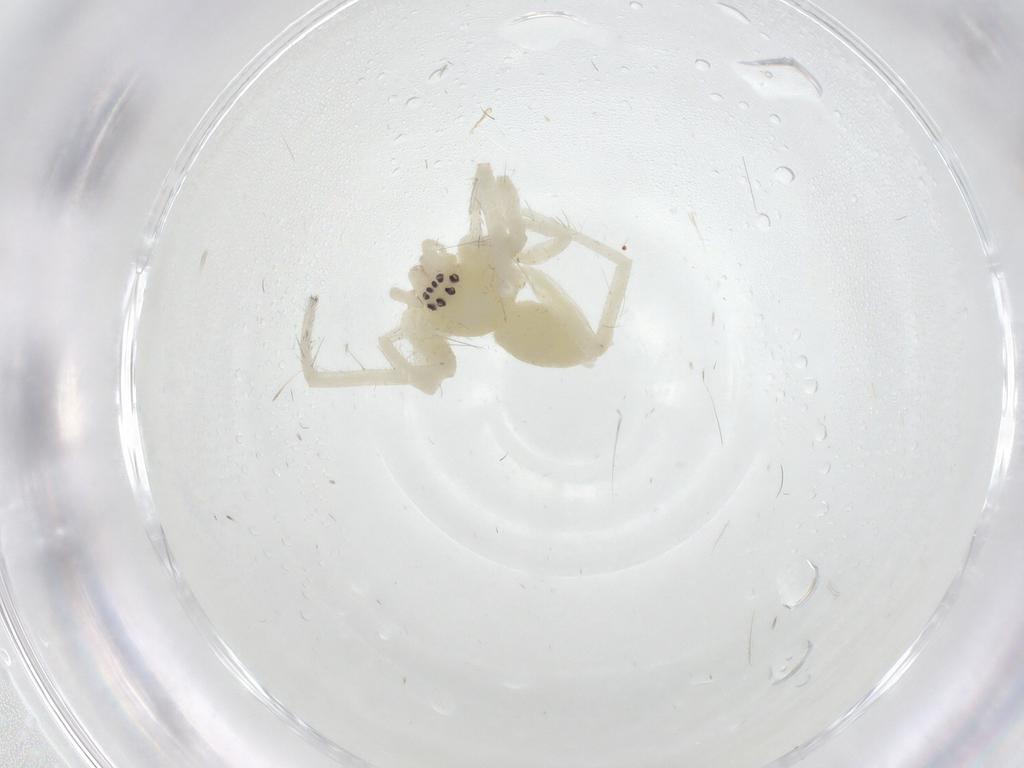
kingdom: Animalia
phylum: Arthropoda
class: Arachnida
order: Araneae
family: Anyphaenidae
